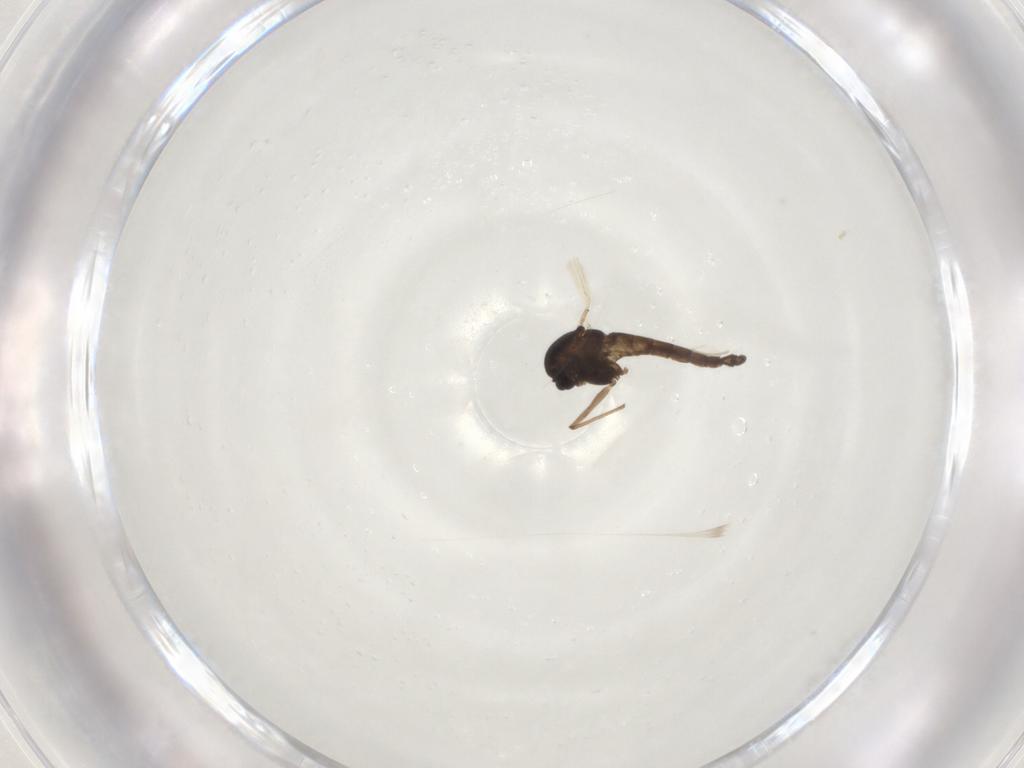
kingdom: Animalia
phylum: Arthropoda
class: Insecta
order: Diptera
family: Chironomidae
